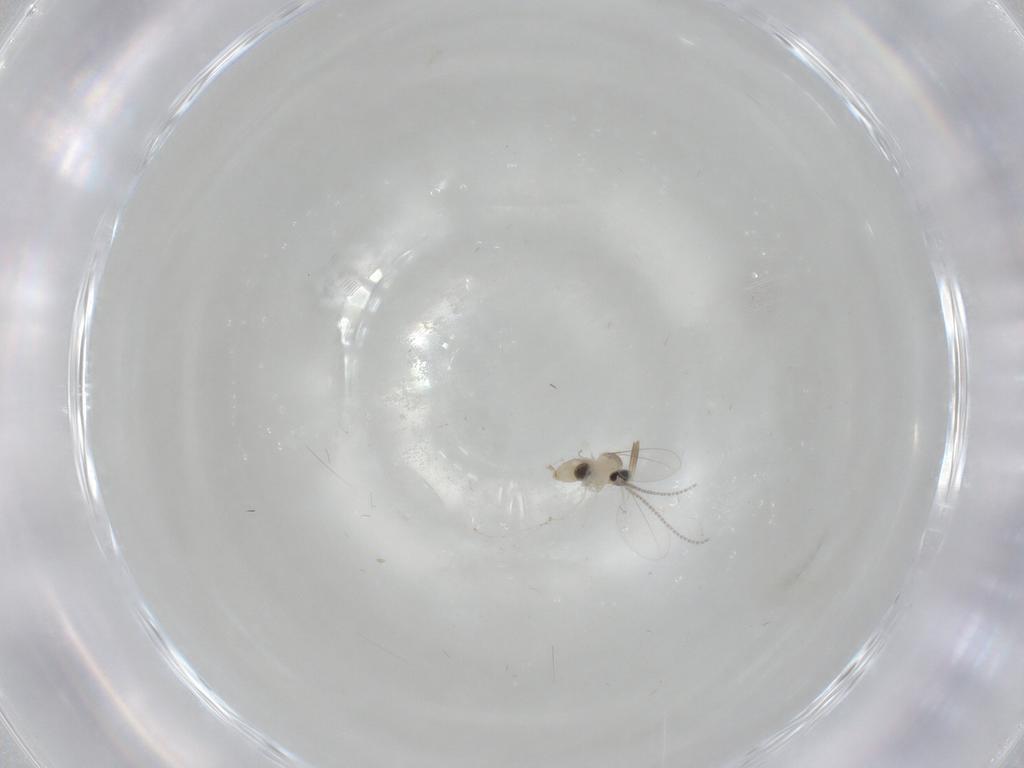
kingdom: Animalia
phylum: Arthropoda
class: Insecta
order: Diptera
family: Cecidomyiidae
